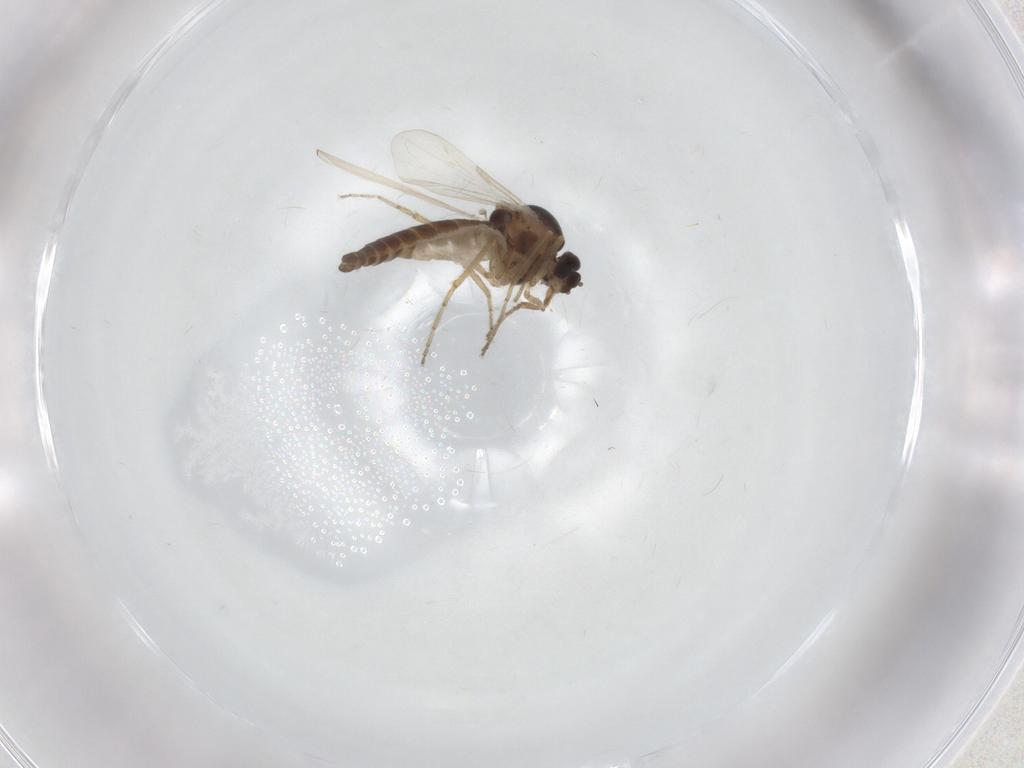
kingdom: Animalia
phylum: Arthropoda
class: Insecta
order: Diptera
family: Ceratopogonidae
